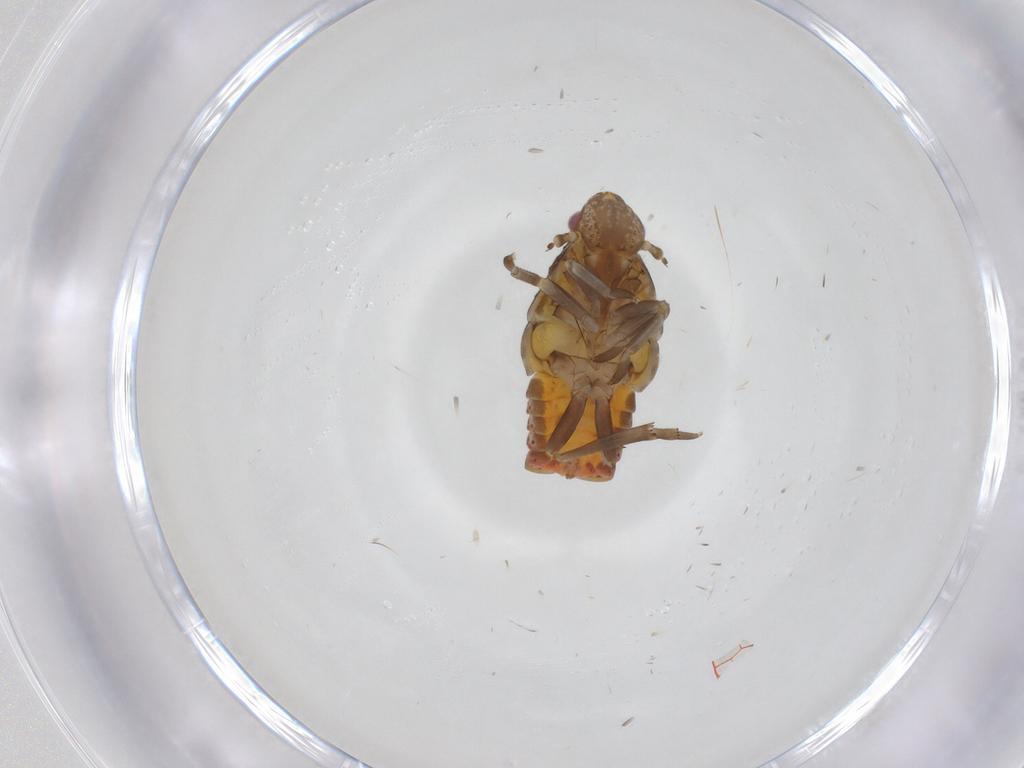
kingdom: Animalia
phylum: Arthropoda
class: Insecta
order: Hemiptera
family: Flatidae
